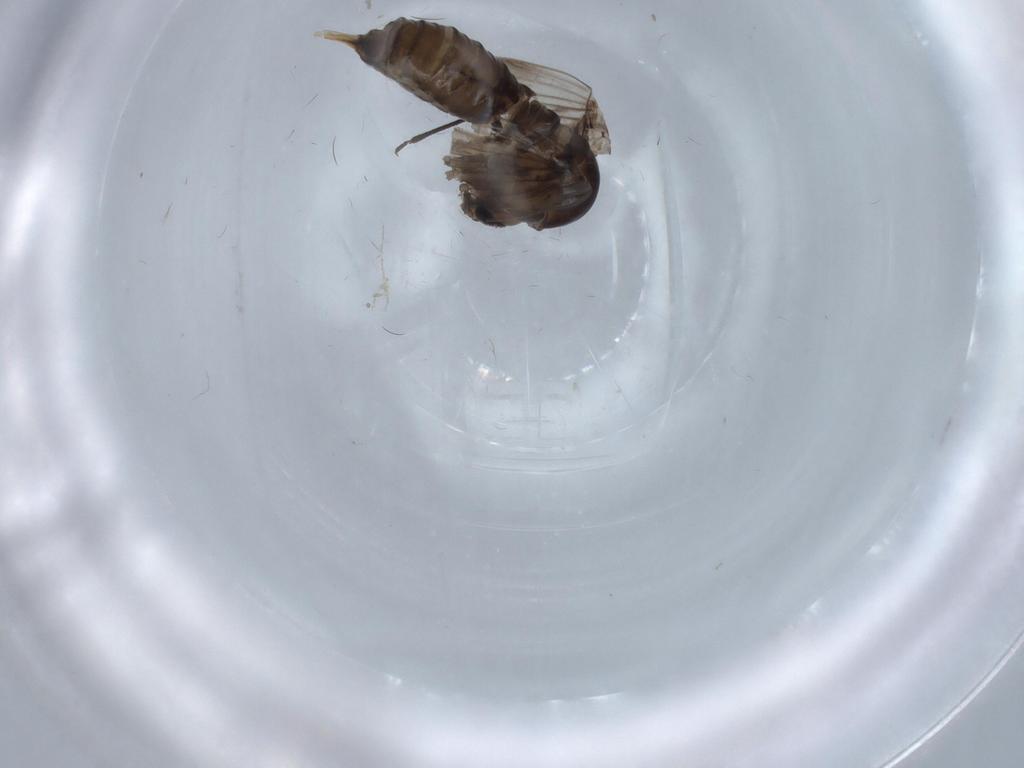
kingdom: Animalia
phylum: Arthropoda
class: Insecta
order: Diptera
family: Psychodidae
